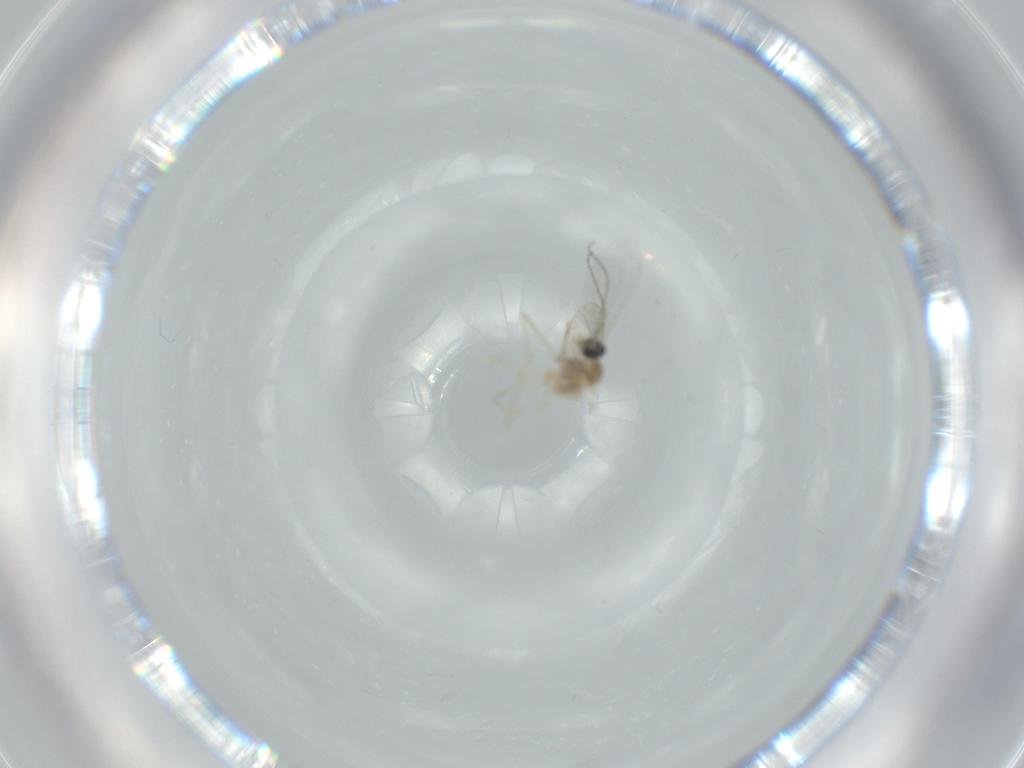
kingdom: Animalia
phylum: Arthropoda
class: Insecta
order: Diptera
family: Cecidomyiidae
